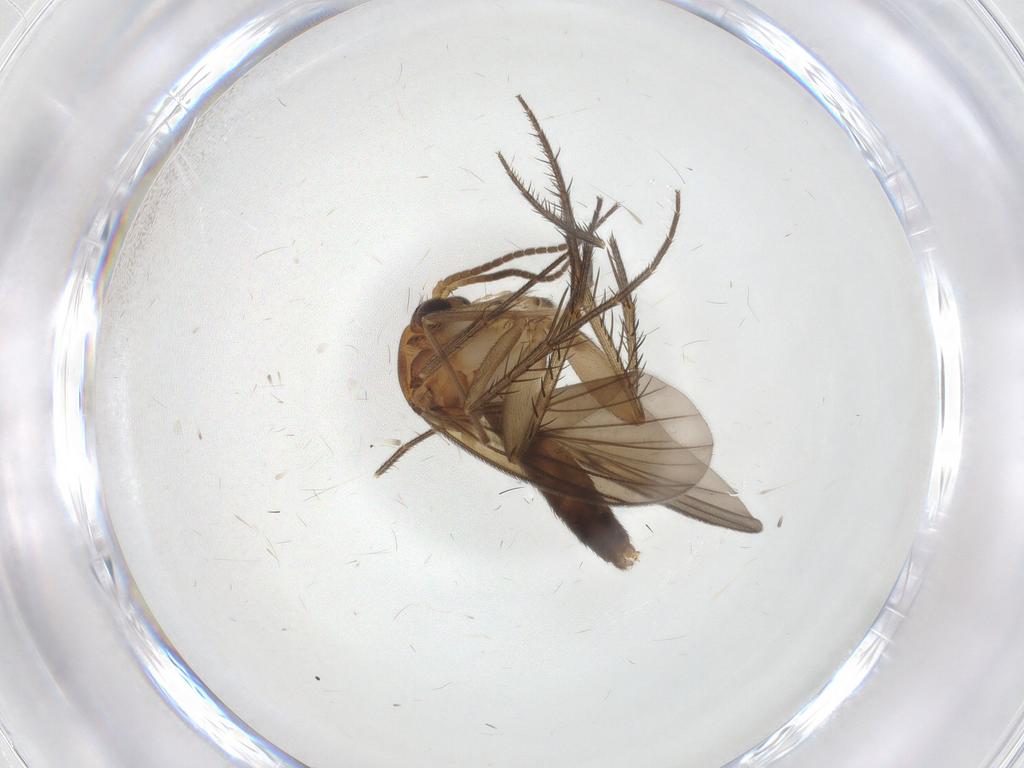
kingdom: Animalia
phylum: Arthropoda
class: Insecta
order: Diptera
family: Mycetophilidae
